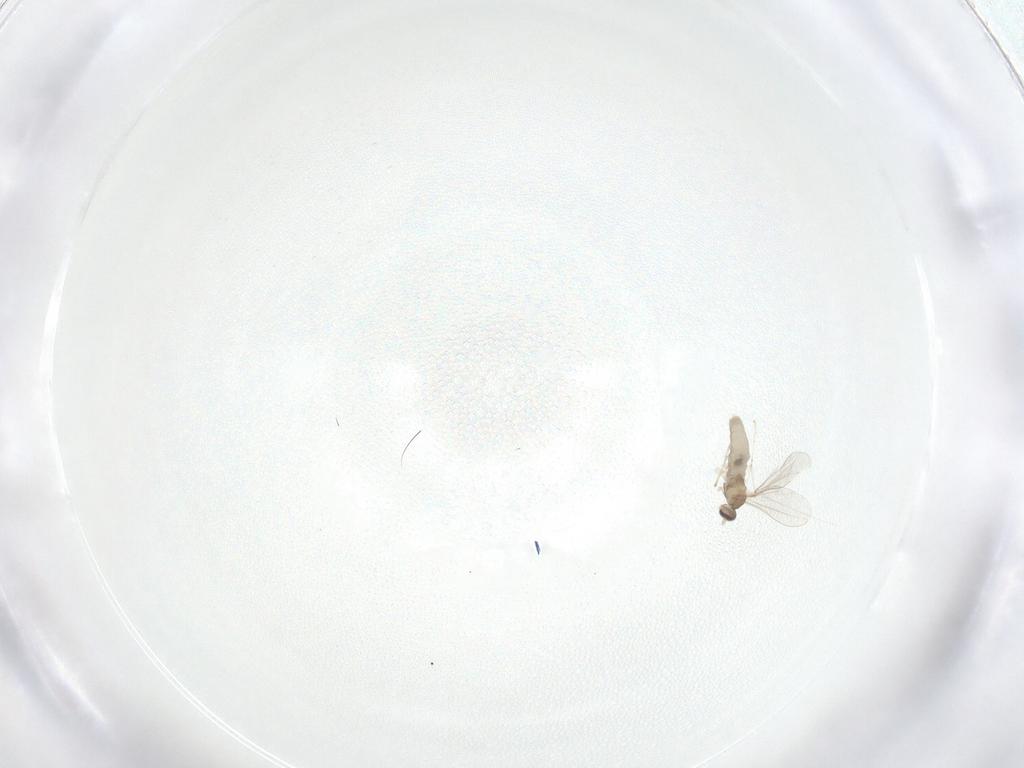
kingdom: Animalia
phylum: Arthropoda
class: Insecta
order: Diptera
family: Cecidomyiidae
